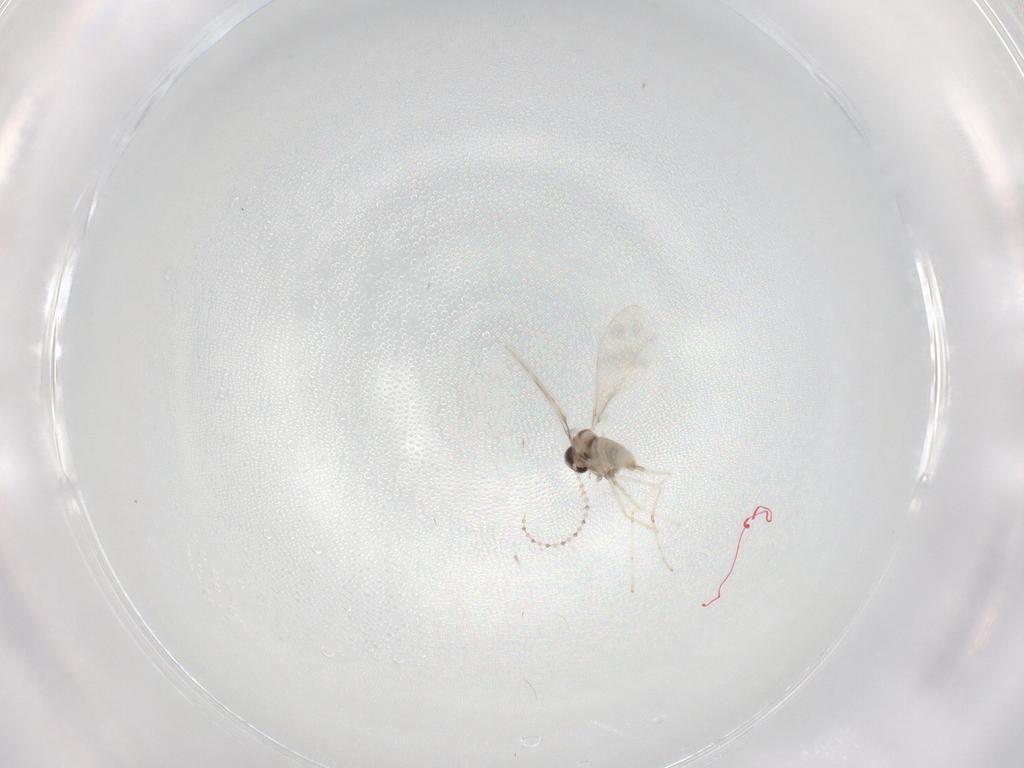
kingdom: Animalia
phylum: Arthropoda
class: Insecta
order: Diptera
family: Cecidomyiidae
